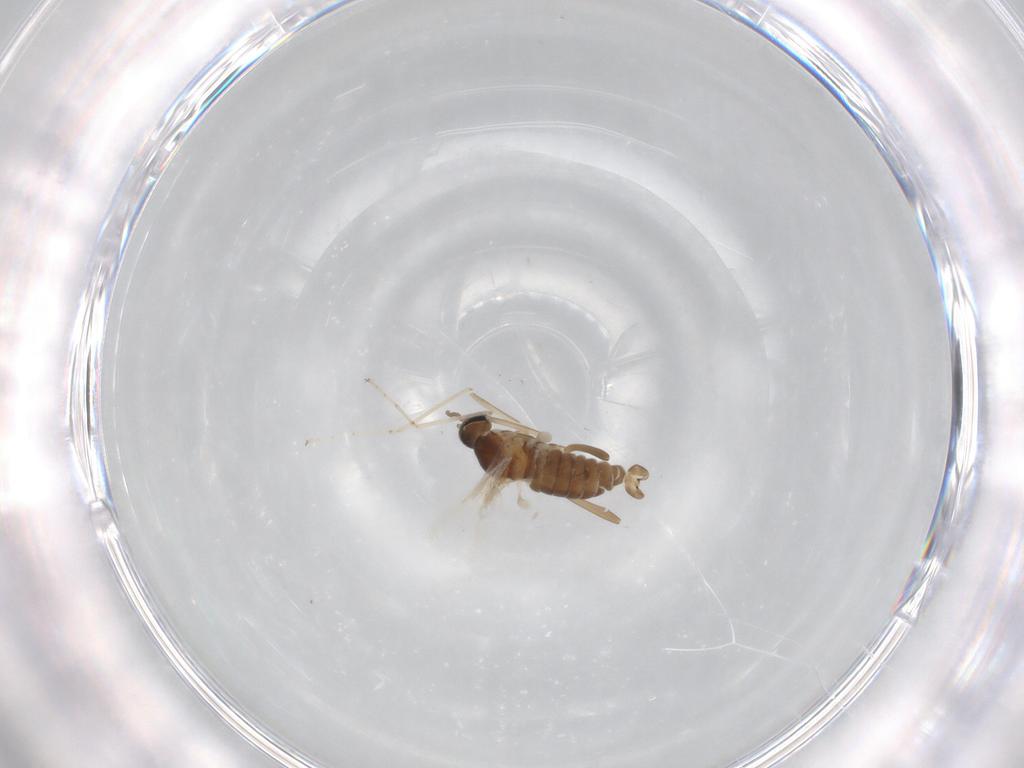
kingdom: Animalia
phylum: Arthropoda
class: Insecta
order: Diptera
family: Cecidomyiidae
